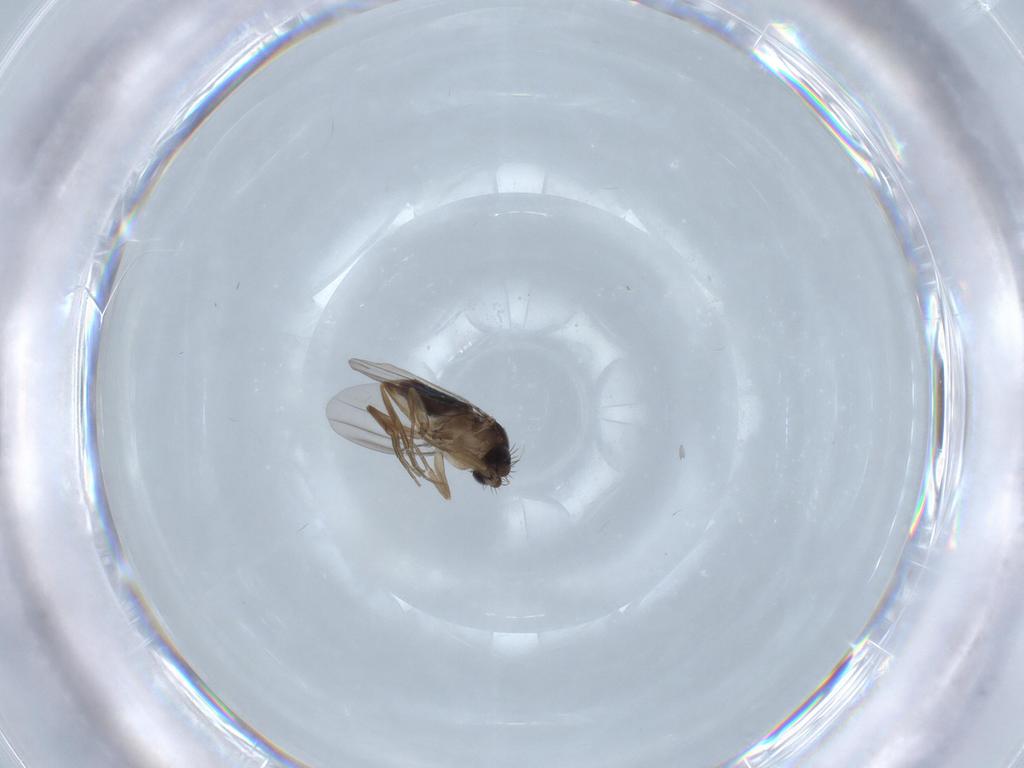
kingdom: Animalia
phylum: Arthropoda
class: Insecta
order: Diptera
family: Phoridae
